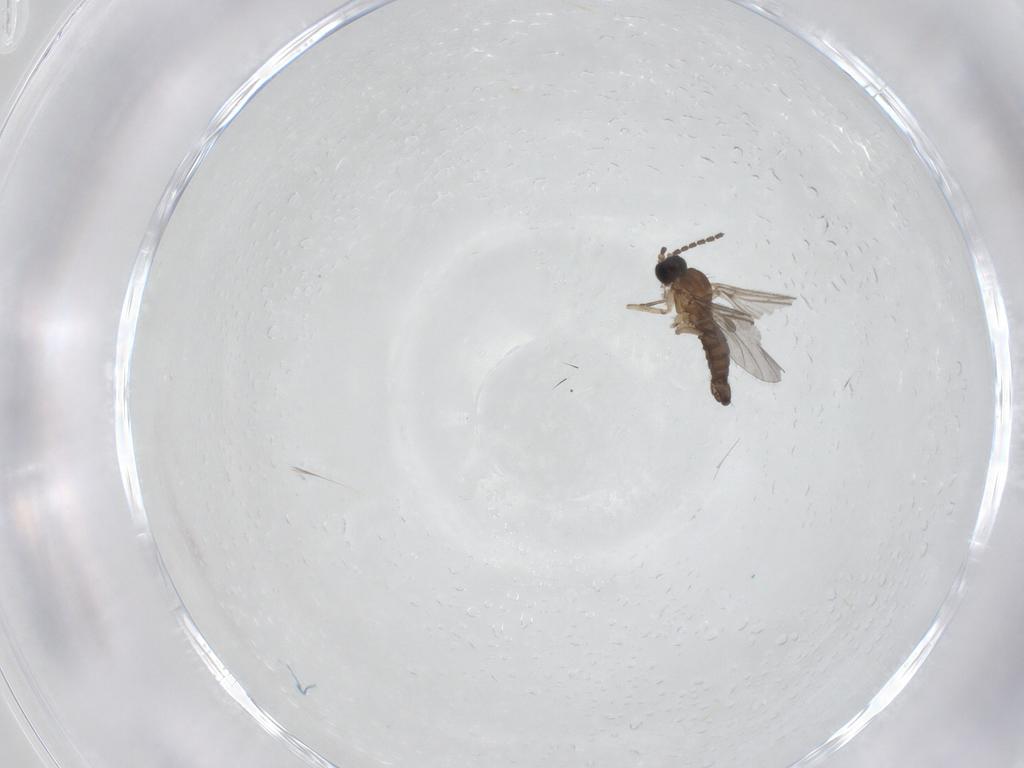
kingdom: Animalia
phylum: Arthropoda
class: Insecta
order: Diptera
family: Sciaridae
